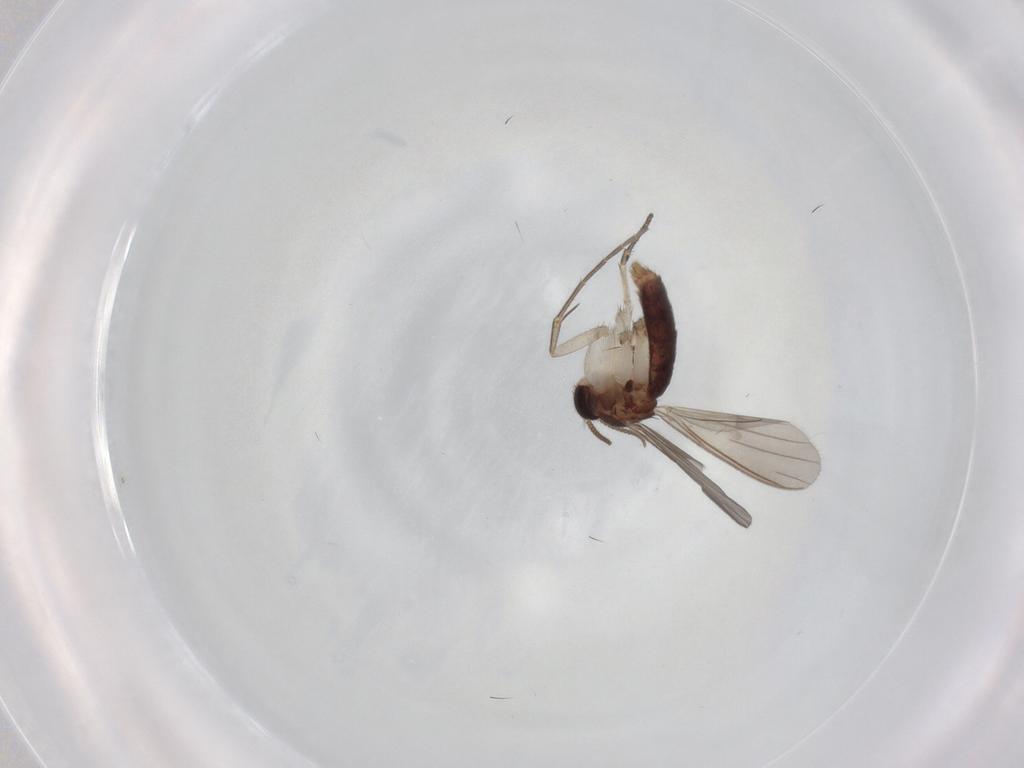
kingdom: Animalia
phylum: Arthropoda
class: Insecta
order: Diptera
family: Mycetophilidae
